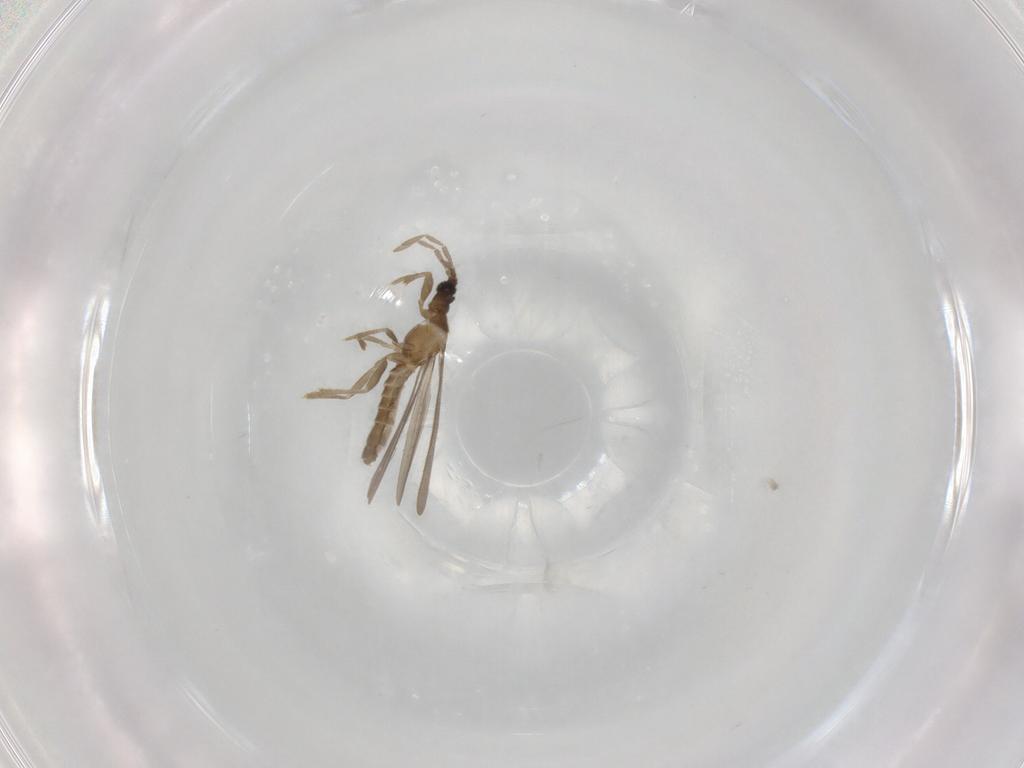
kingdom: Animalia
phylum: Arthropoda
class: Insecta
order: Hemiptera
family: Enicocephalidae
